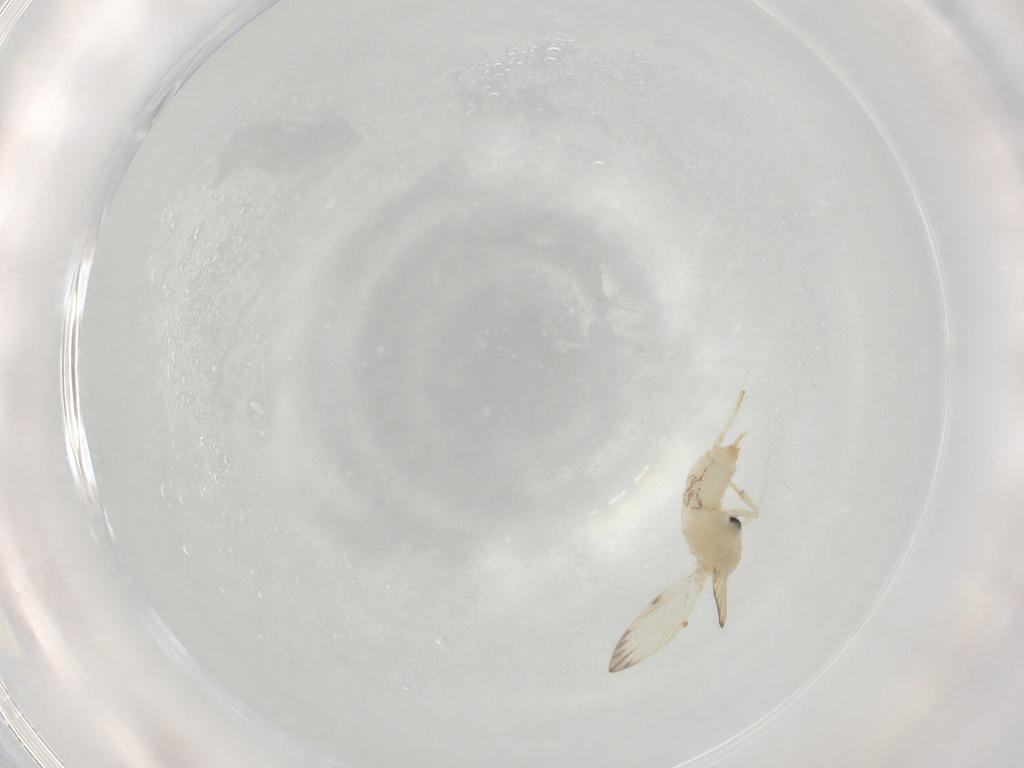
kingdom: Animalia
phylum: Arthropoda
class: Insecta
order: Diptera
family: Psychodidae
